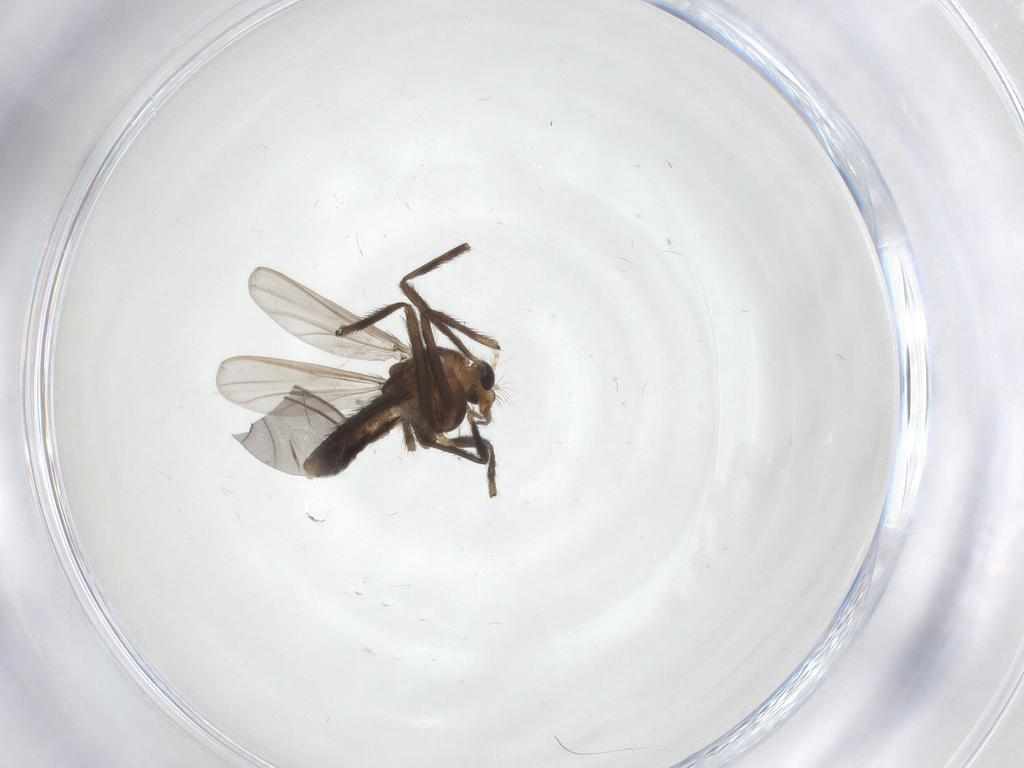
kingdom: Animalia
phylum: Arthropoda
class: Insecta
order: Diptera
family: Chironomidae
